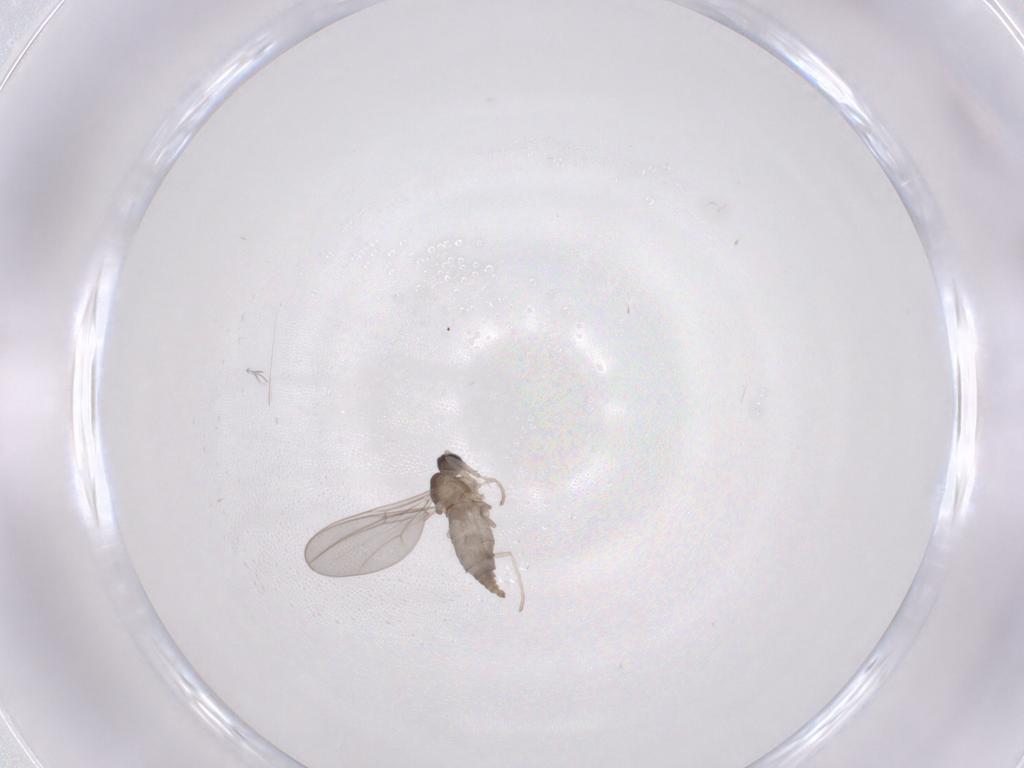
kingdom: Animalia
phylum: Arthropoda
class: Insecta
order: Diptera
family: Cecidomyiidae
